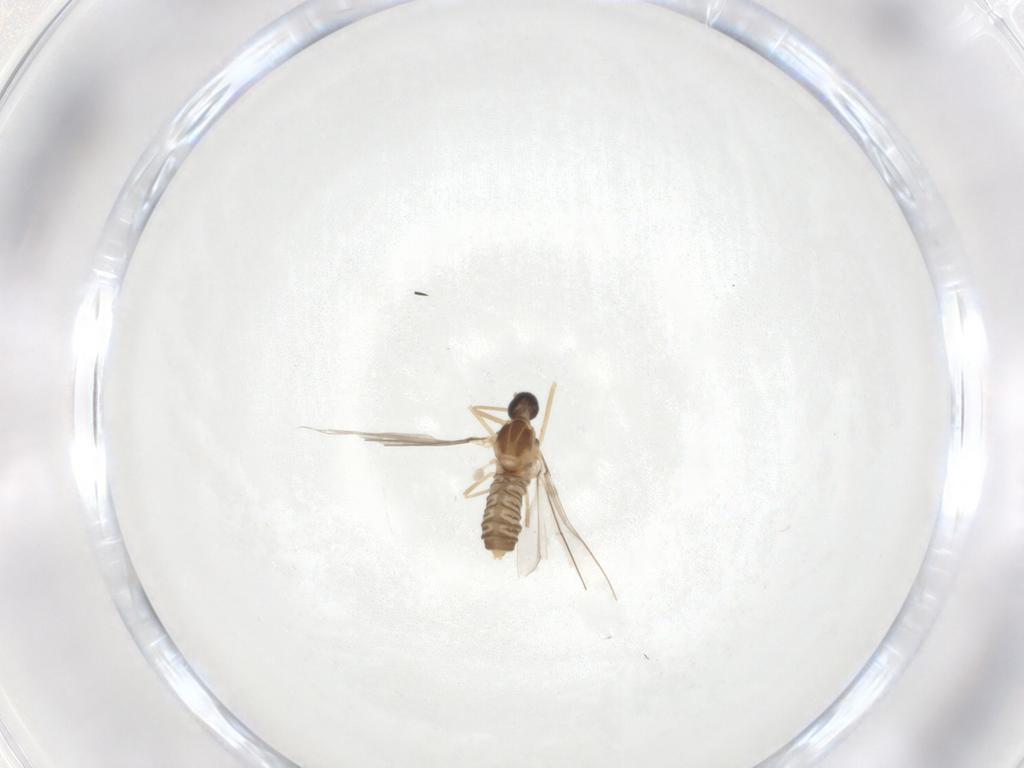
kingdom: Animalia
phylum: Arthropoda
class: Insecta
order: Diptera
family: Cecidomyiidae
